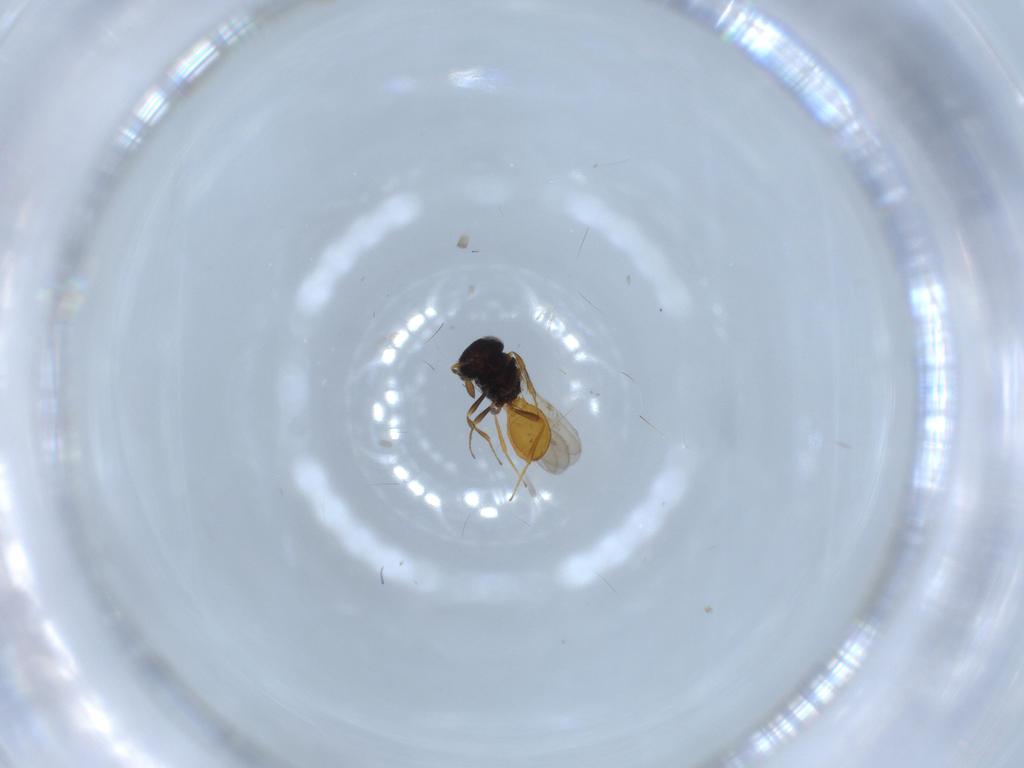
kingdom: Animalia
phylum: Arthropoda
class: Insecta
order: Hymenoptera
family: Scelionidae
